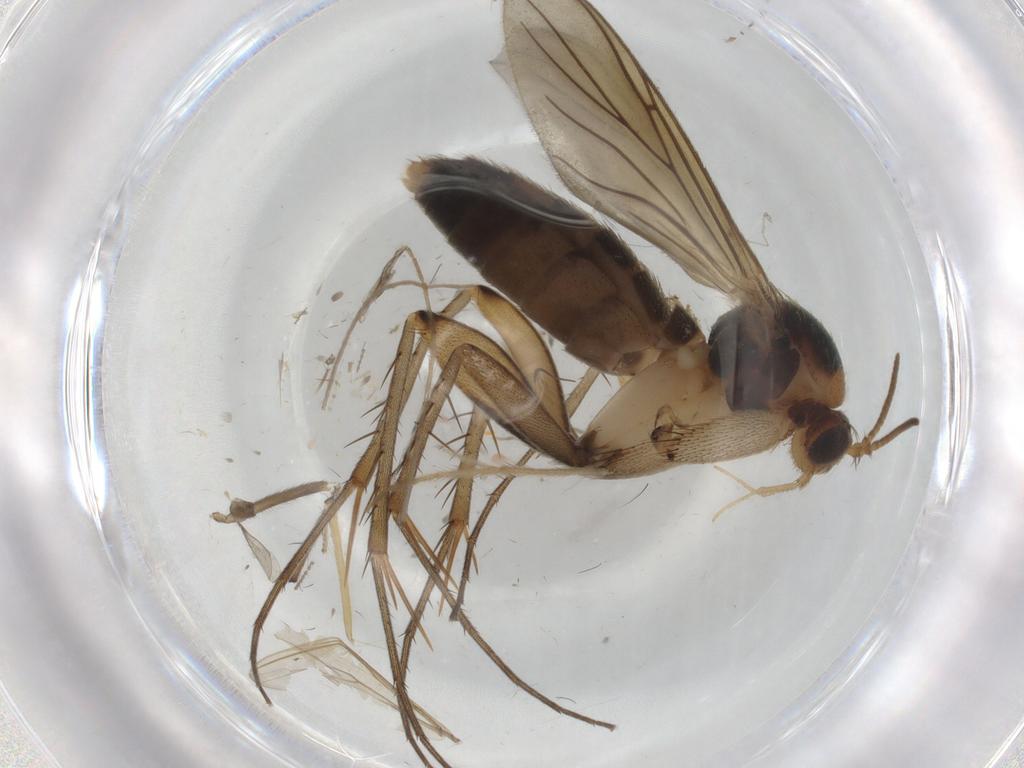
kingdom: Animalia
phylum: Arthropoda
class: Insecta
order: Diptera
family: Mycetophilidae
